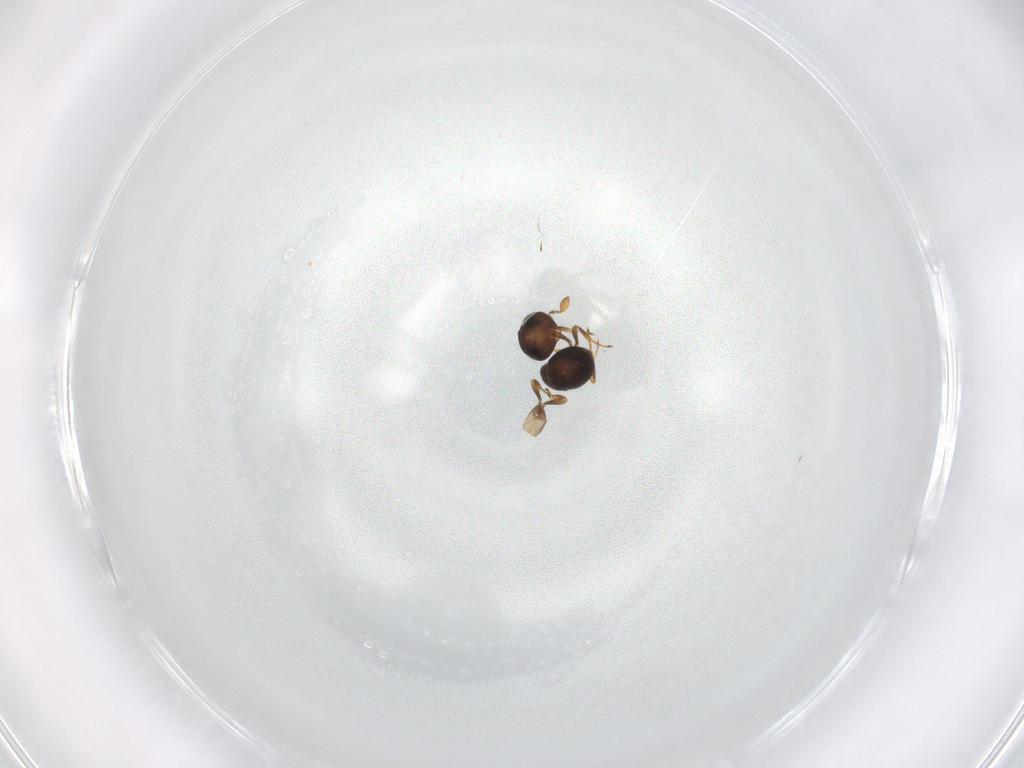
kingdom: Animalia
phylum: Arthropoda
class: Insecta
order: Hymenoptera
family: Scelionidae
